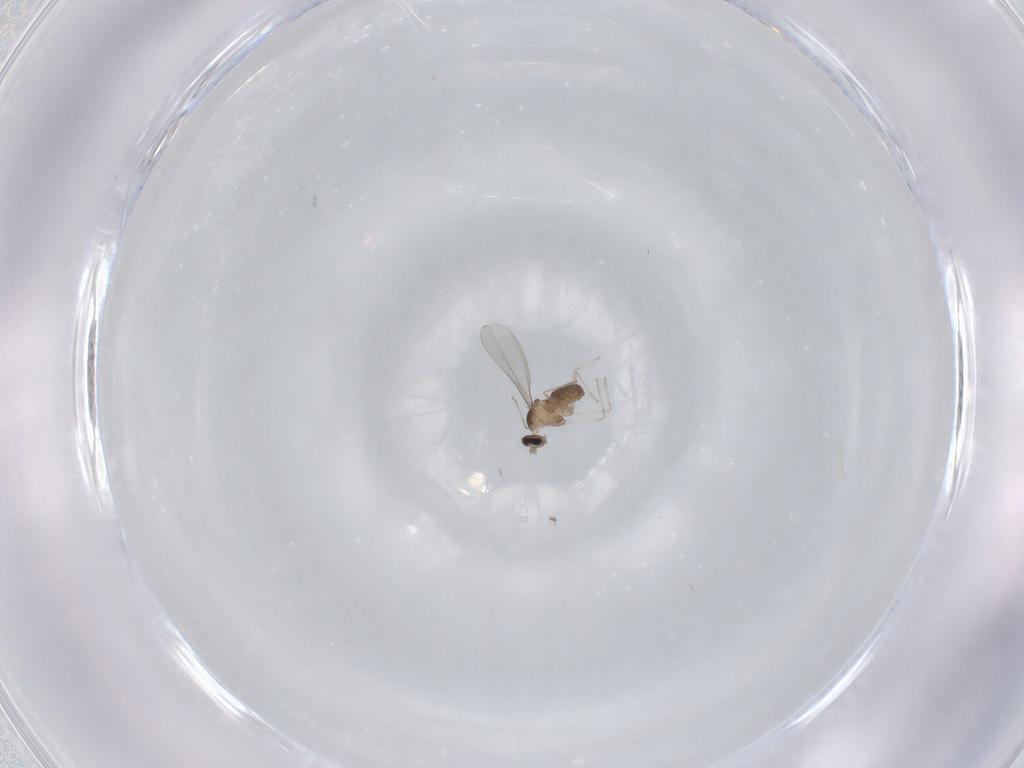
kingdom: Animalia
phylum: Arthropoda
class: Insecta
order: Diptera
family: Cecidomyiidae
